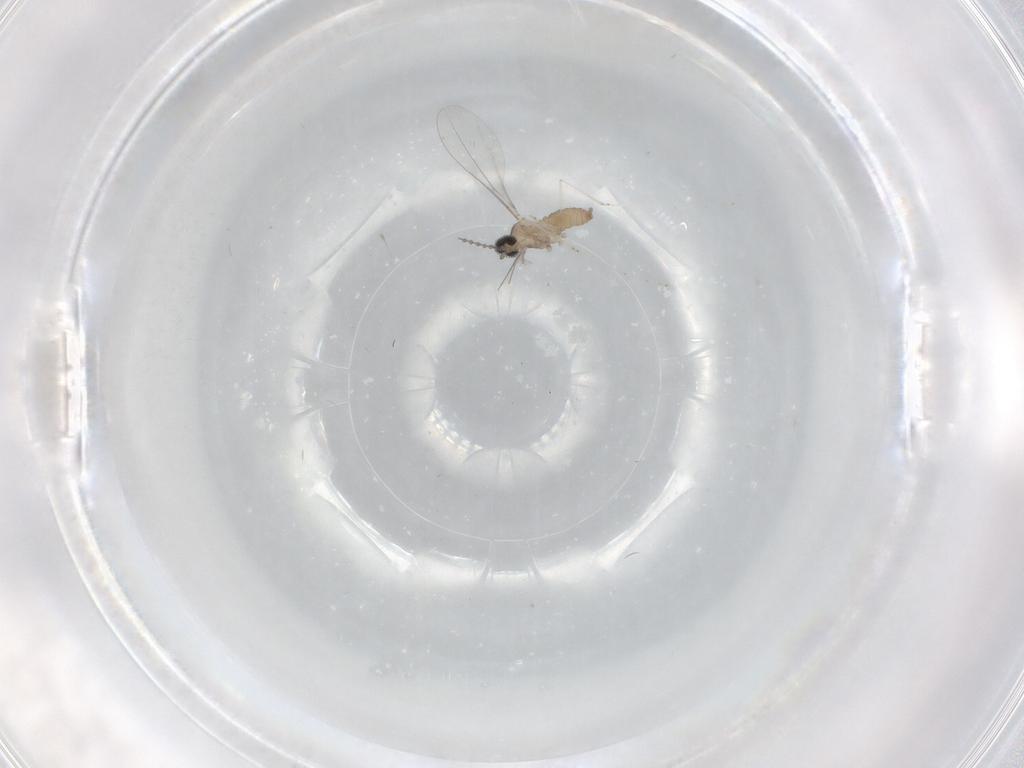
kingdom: Animalia
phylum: Arthropoda
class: Insecta
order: Diptera
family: Cecidomyiidae
